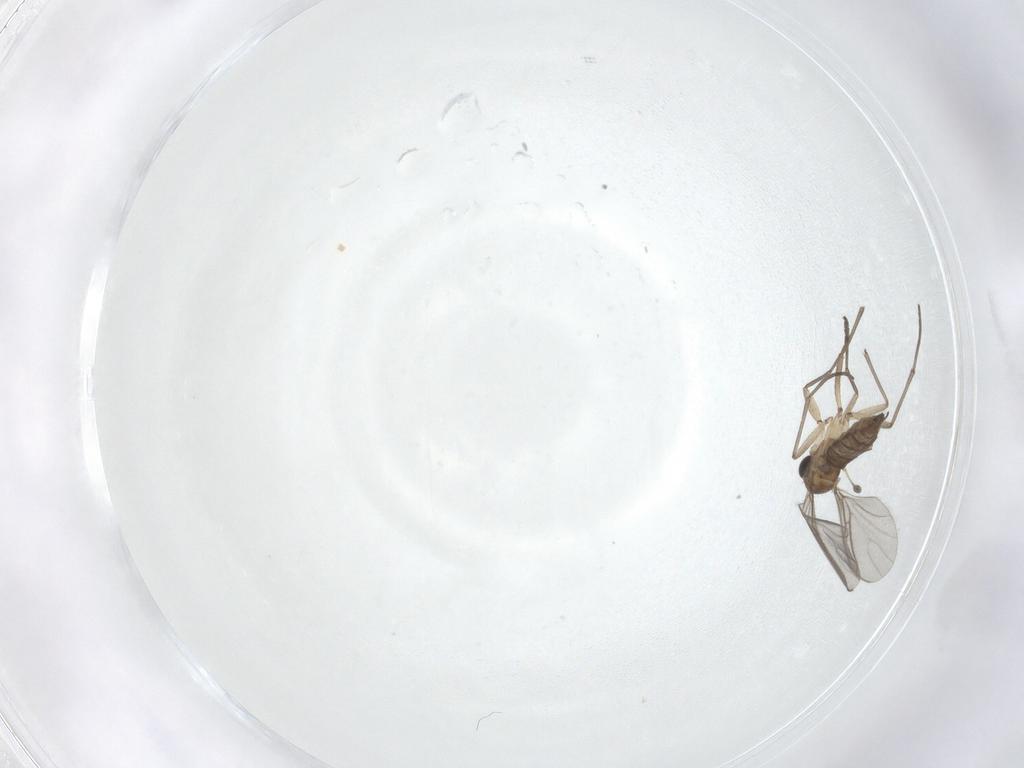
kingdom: Animalia
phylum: Arthropoda
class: Insecta
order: Diptera
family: Sciaridae
